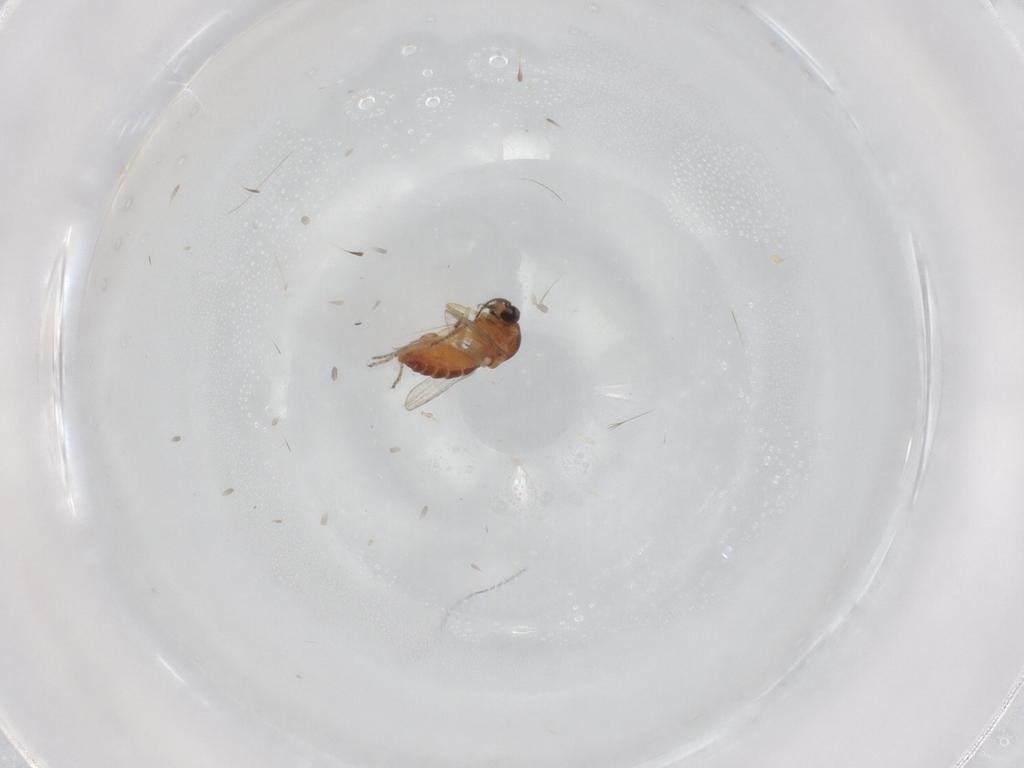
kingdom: Animalia
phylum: Arthropoda
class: Insecta
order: Diptera
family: Ceratopogonidae
